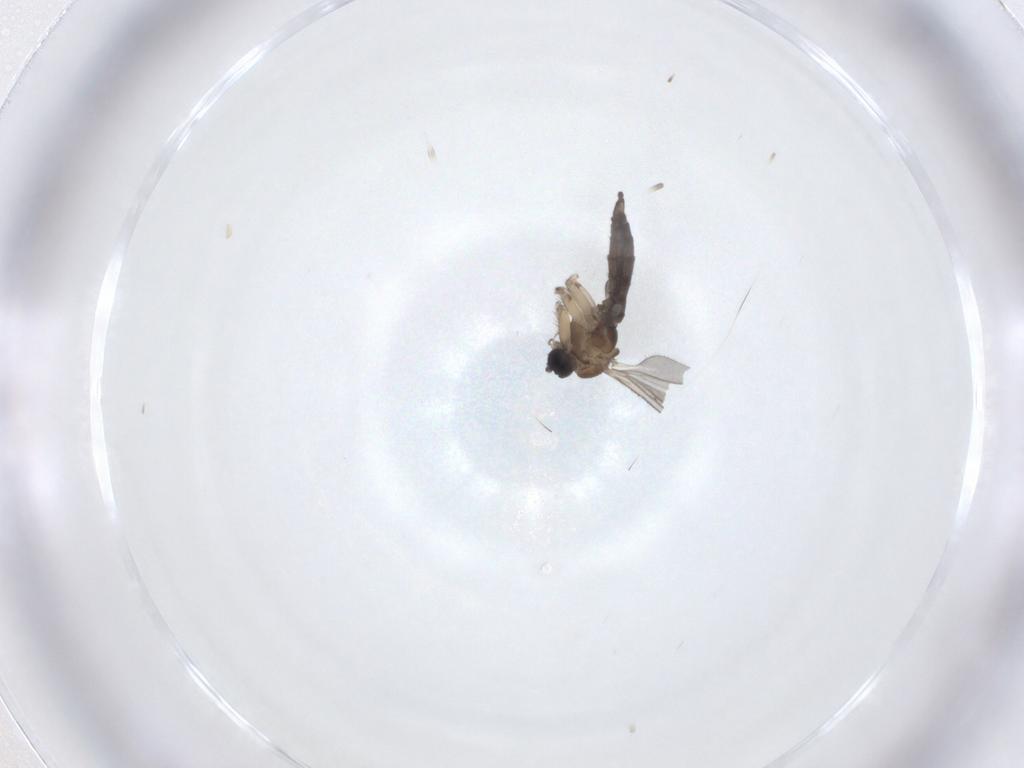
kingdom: Animalia
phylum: Arthropoda
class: Insecta
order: Diptera
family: Sciaridae
